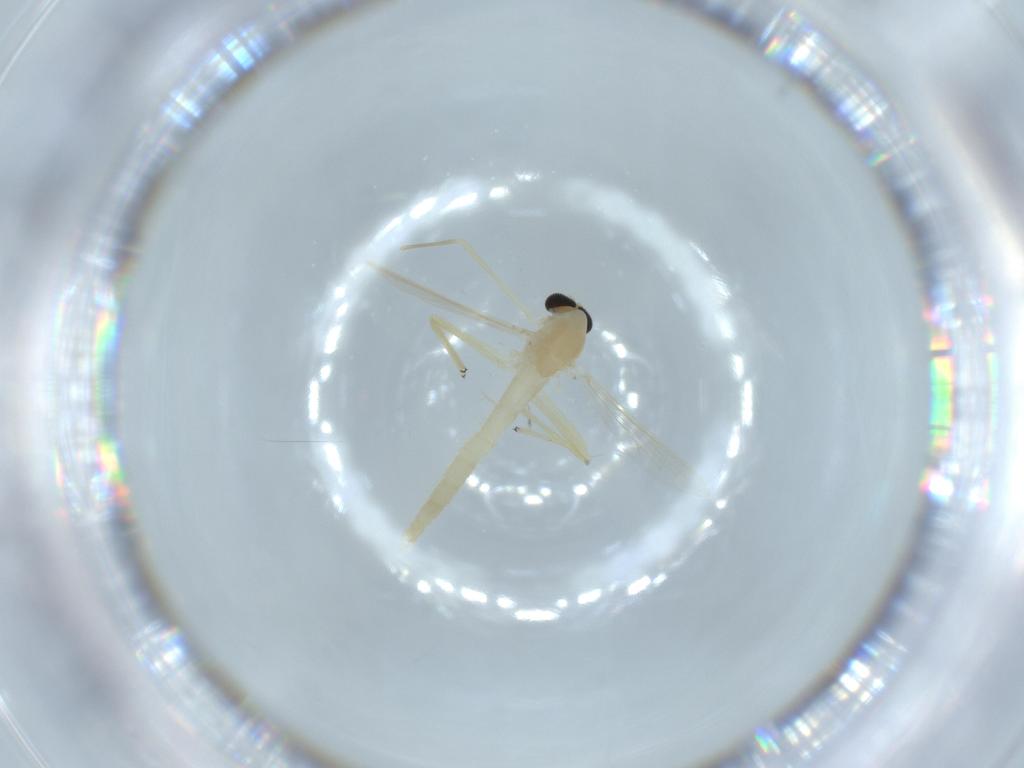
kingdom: Animalia
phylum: Arthropoda
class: Insecta
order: Diptera
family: Chironomidae
